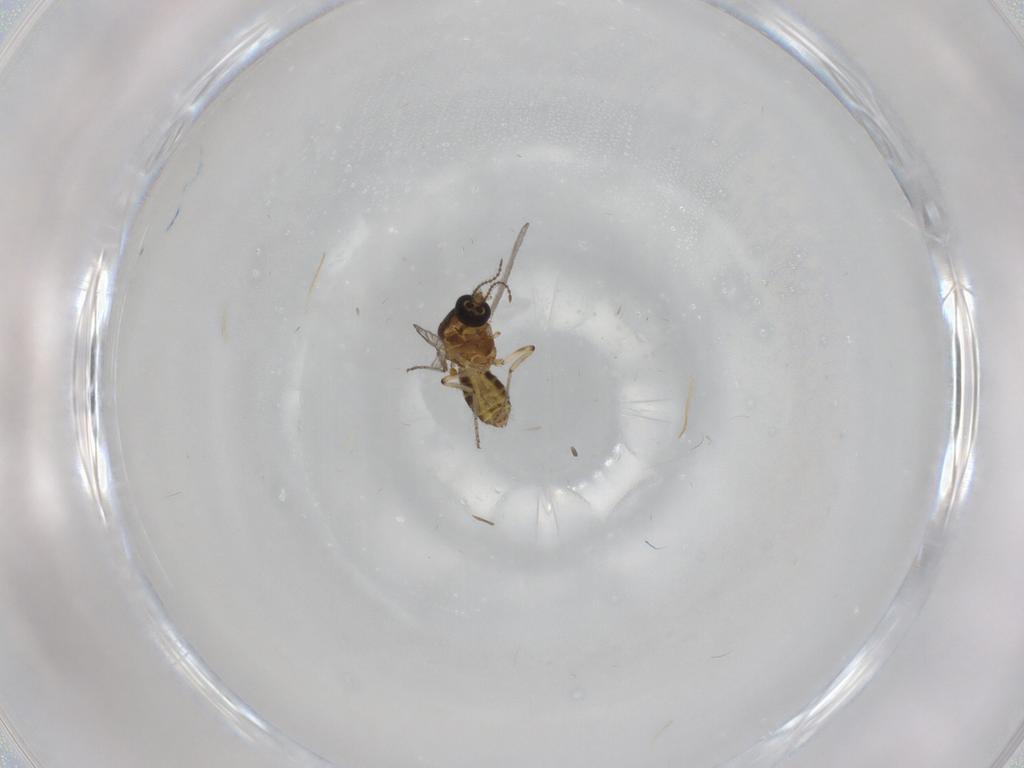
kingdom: Animalia
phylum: Arthropoda
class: Insecta
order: Diptera
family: Ceratopogonidae
